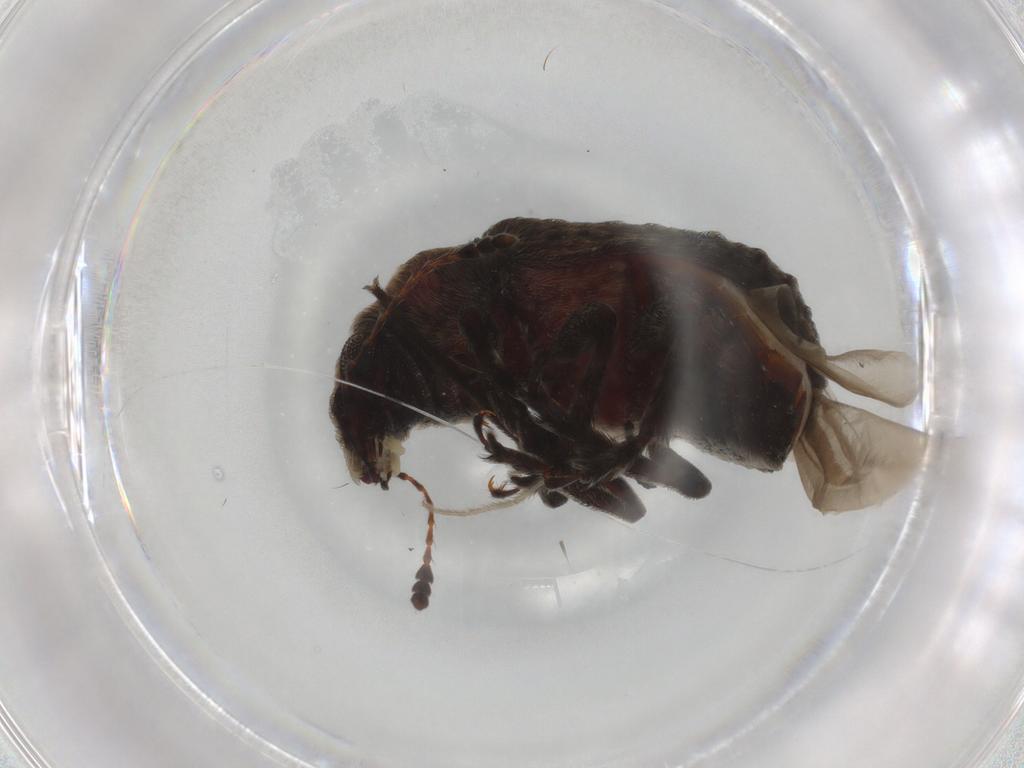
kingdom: Animalia
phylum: Arthropoda
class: Insecta
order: Coleoptera
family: Anthribidae
